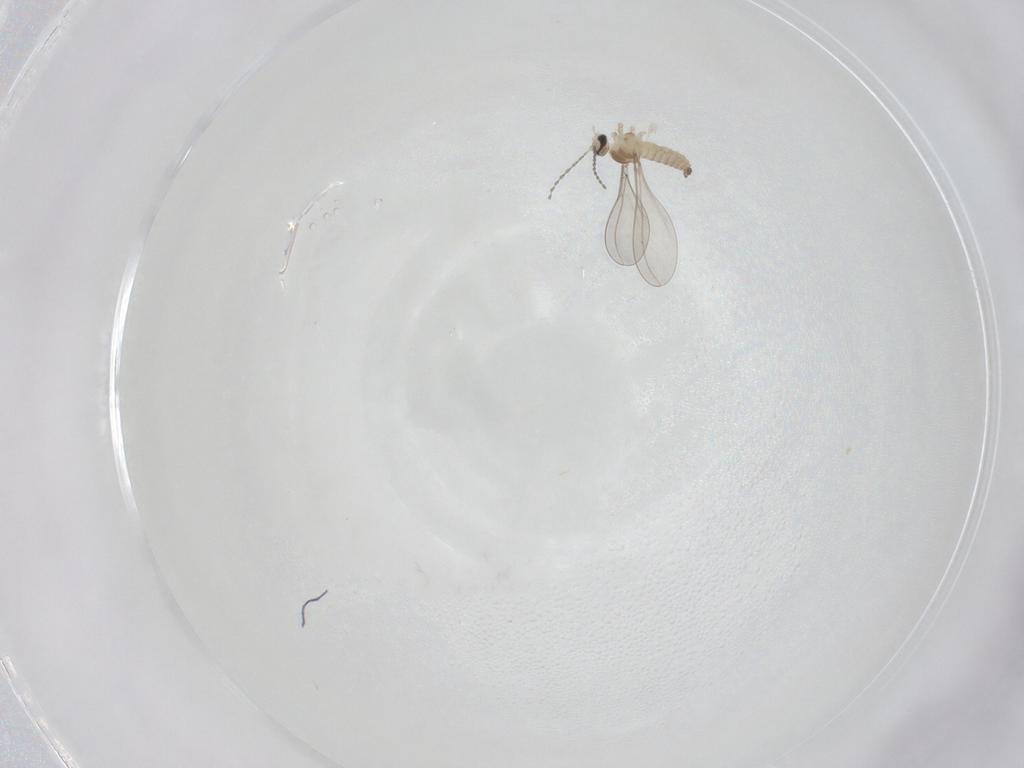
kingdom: Animalia
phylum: Arthropoda
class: Insecta
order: Diptera
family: Cecidomyiidae
